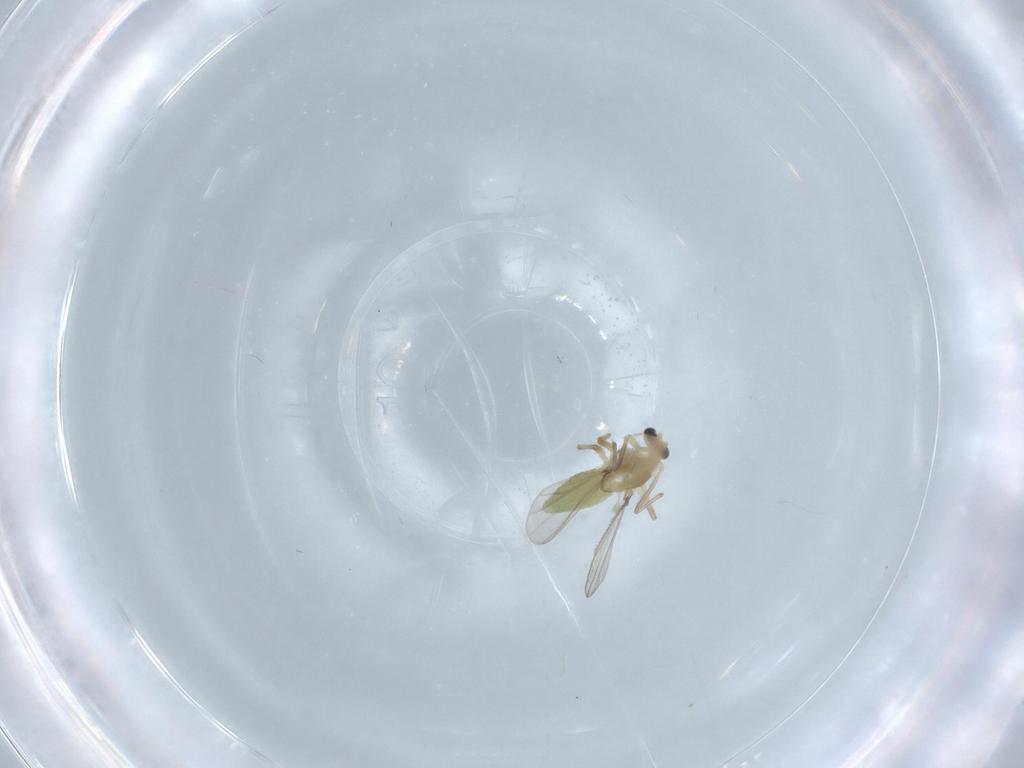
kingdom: Animalia
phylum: Arthropoda
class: Insecta
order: Diptera
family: Chironomidae
